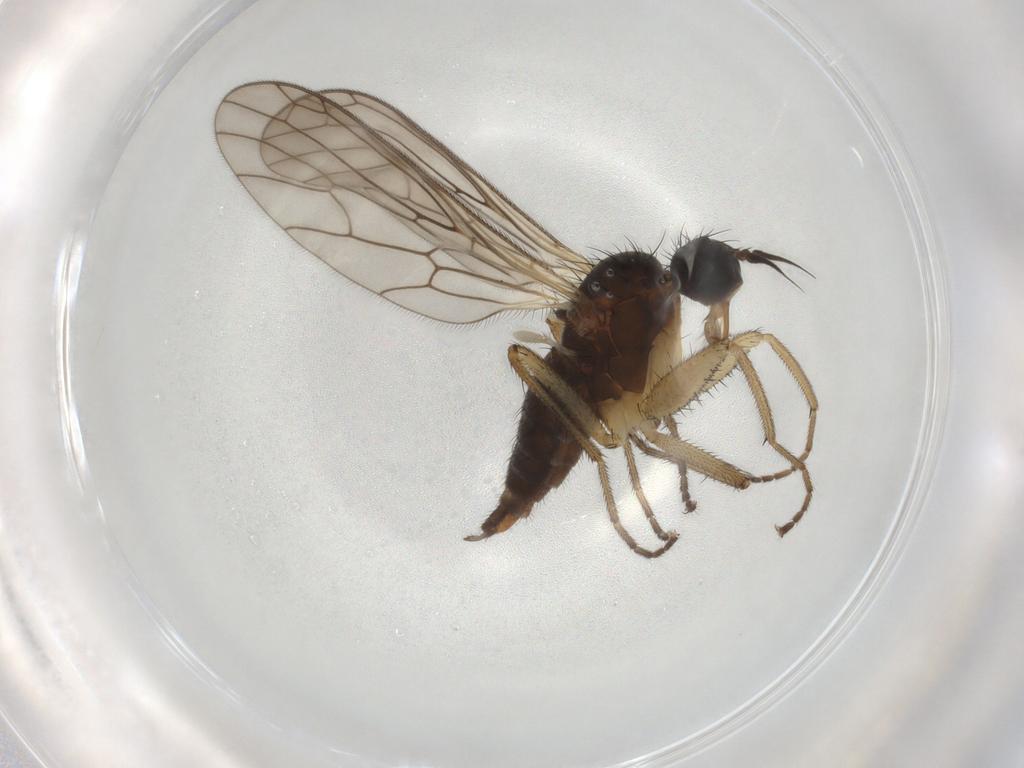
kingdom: Animalia
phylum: Arthropoda
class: Insecta
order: Diptera
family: Empididae
